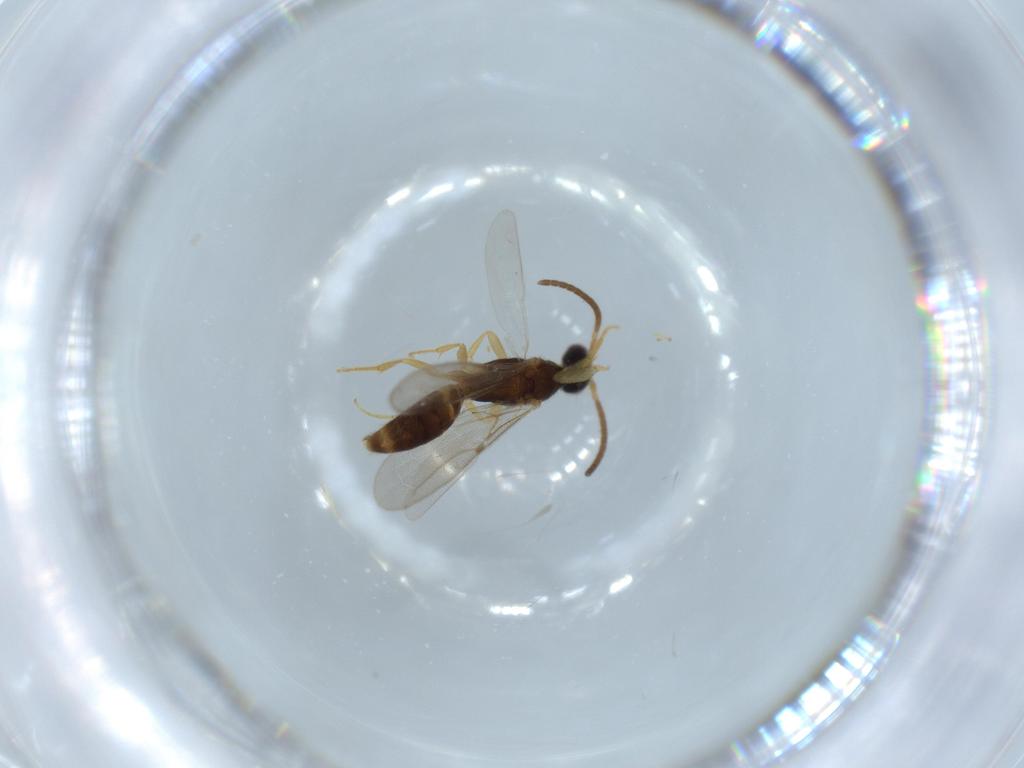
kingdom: Animalia
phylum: Arthropoda
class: Insecta
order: Hymenoptera
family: Bethylidae
